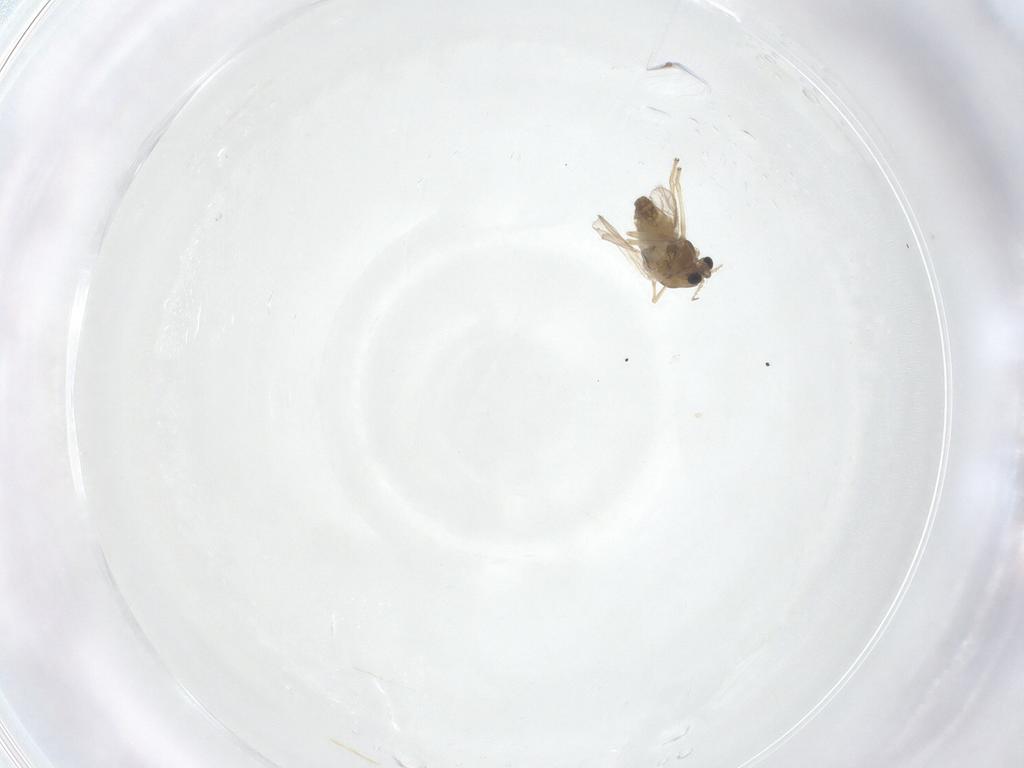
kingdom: Animalia
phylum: Arthropoda
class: Insecta
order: Diptera
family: Chironomidae
